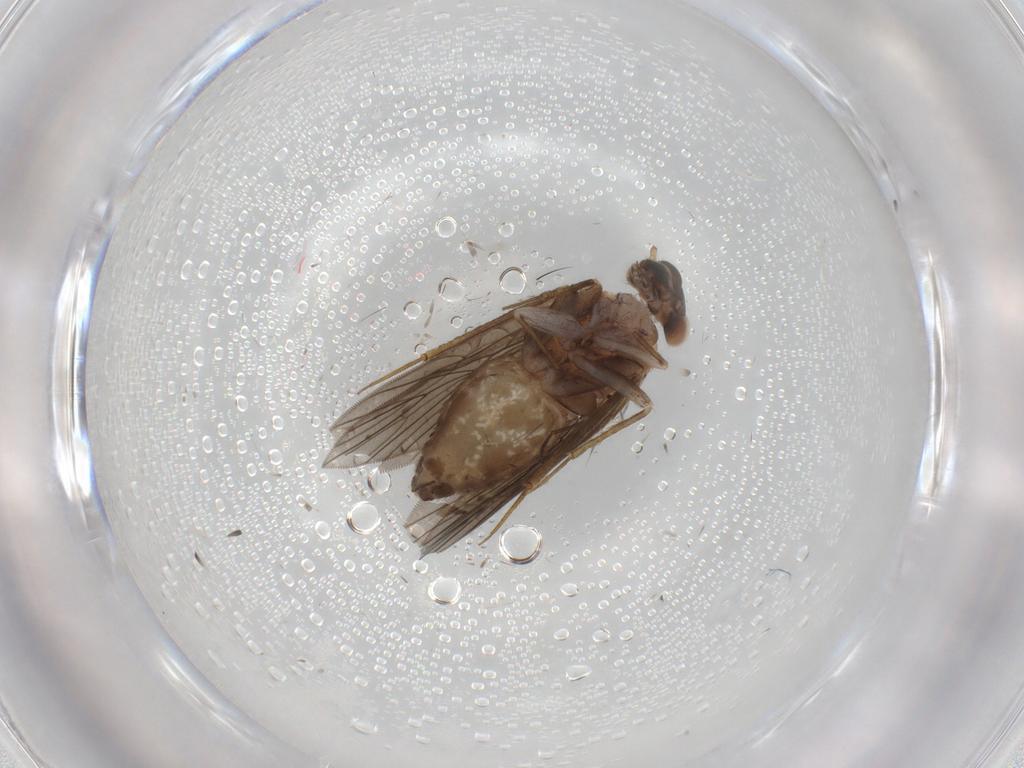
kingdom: Animalia
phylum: Arthropoda
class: Insecta
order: Psocodea
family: Lepidopsocidae
